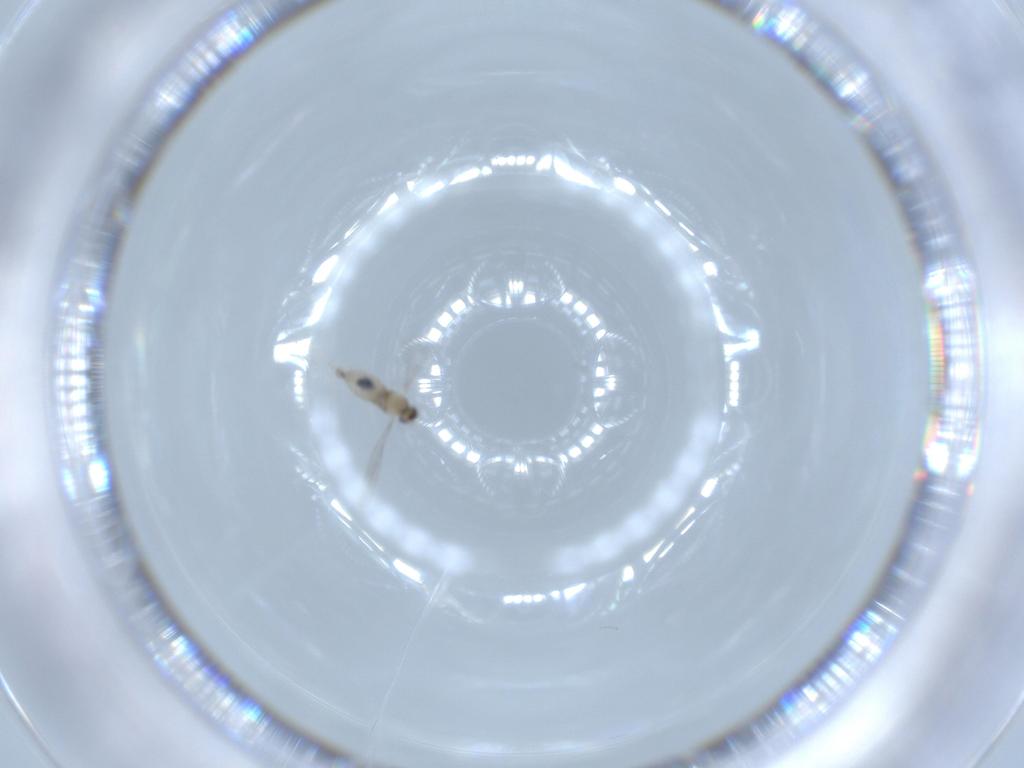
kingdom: Animalia
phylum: Arthropoda
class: Insecta
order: Diptera
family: Cecidomyiidae
